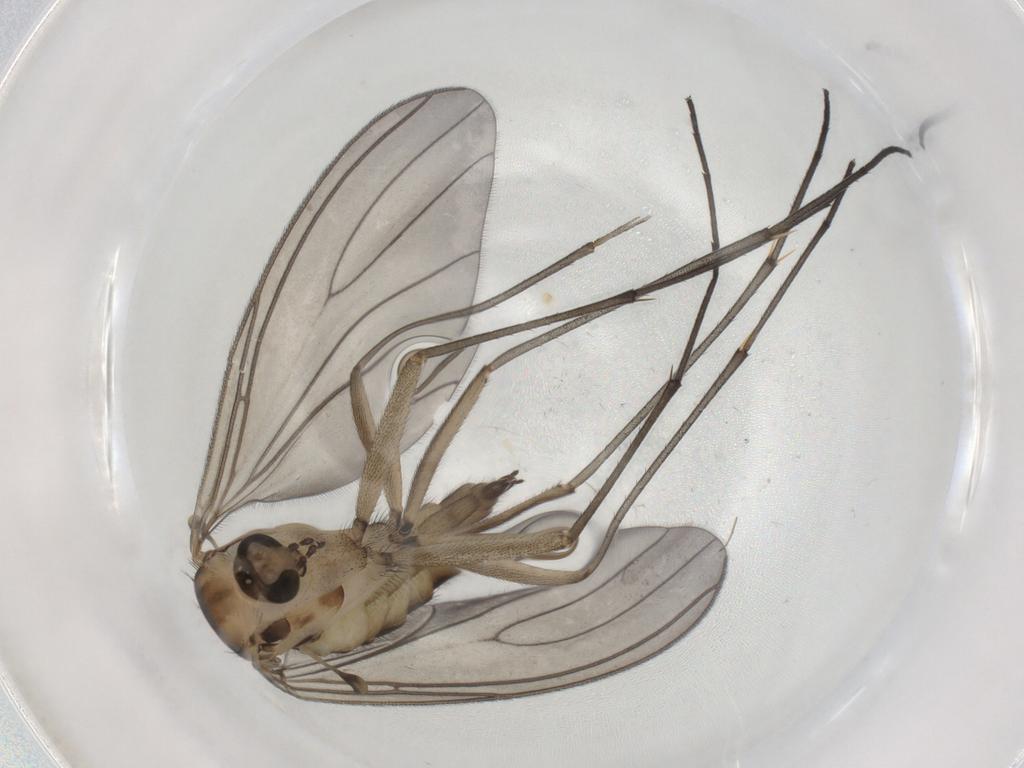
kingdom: Animalia
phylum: Arthropoda
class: Insecta
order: Diptera
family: Sciaridae
